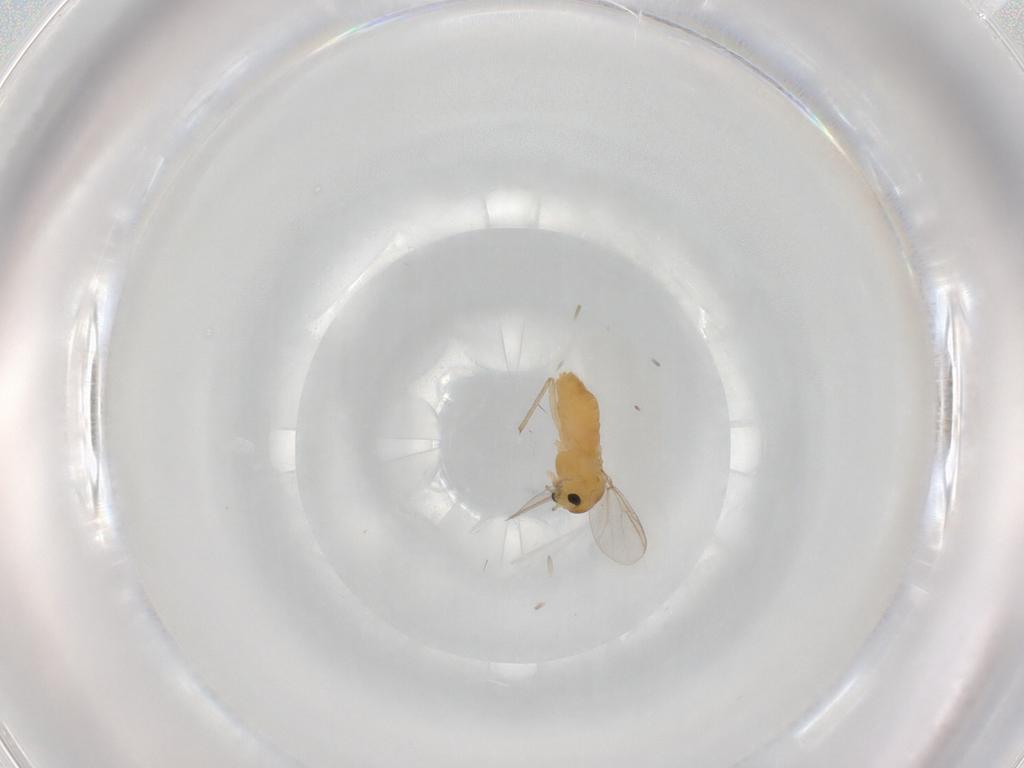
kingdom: Animalia
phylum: Arthropoda
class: Insecta
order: Diptera
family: Chironomidae
